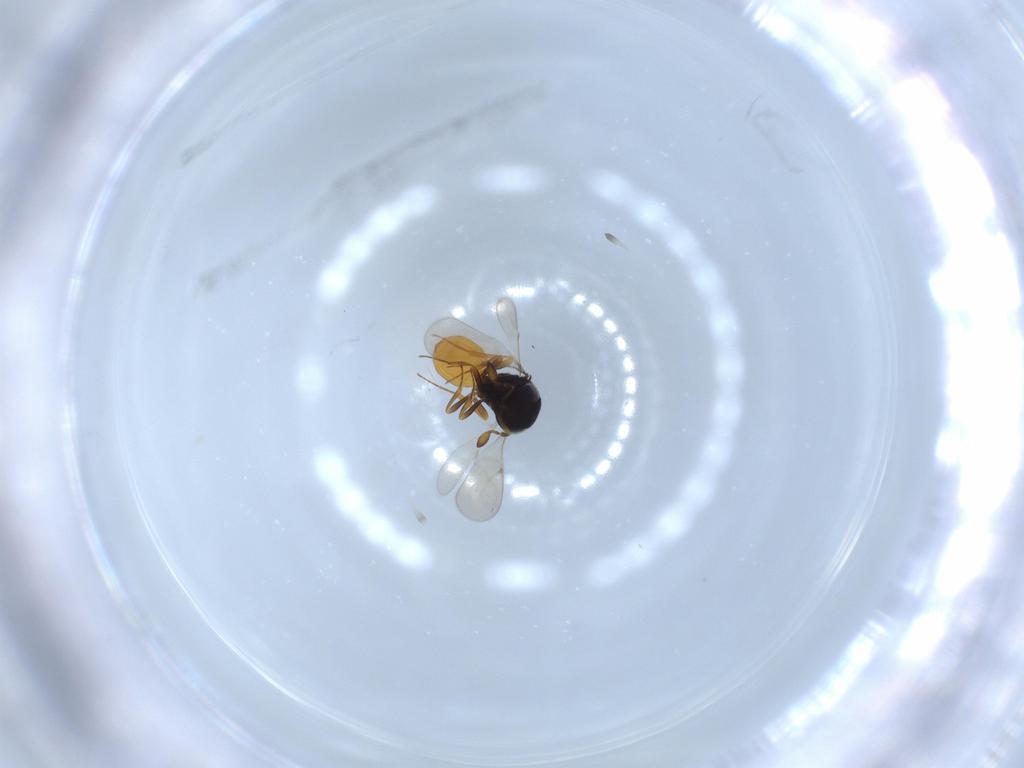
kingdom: Animalia
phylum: Arthropoda
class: Insecta
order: Hymenoptera
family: Scelionidae
